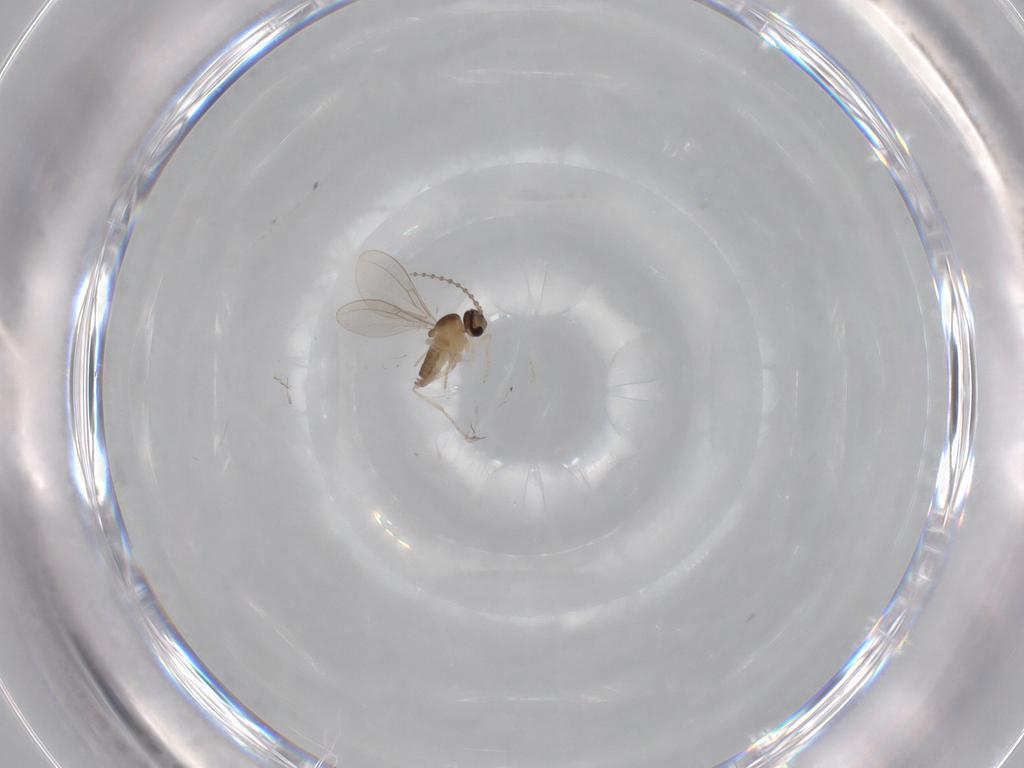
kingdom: Animalia
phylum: Arthropoda
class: Insecta
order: Diptera
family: Cecidomyiidae
